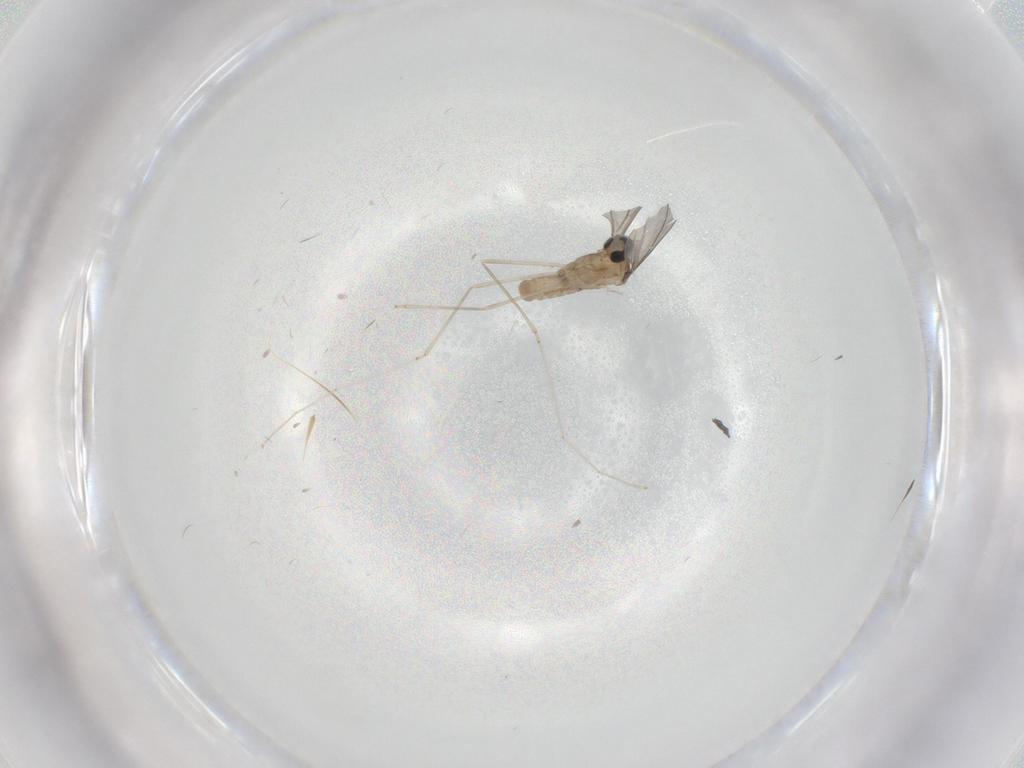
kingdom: Animalia
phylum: Arthropoda
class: Insecta
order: Diptera
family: Cecidomyiidae
